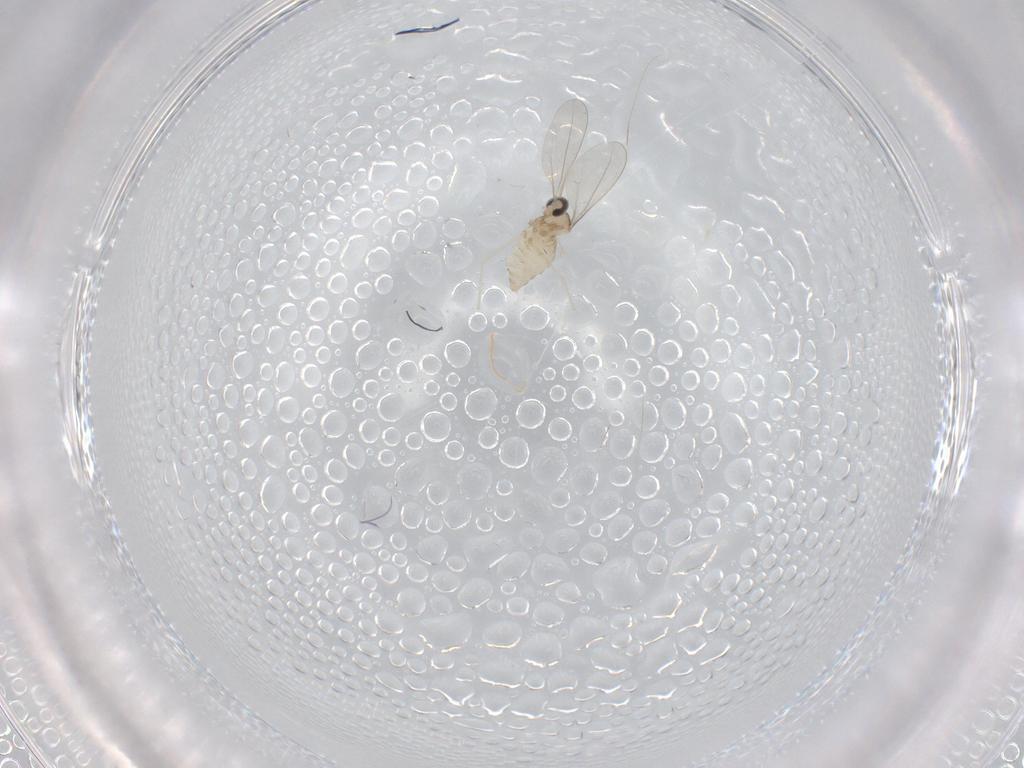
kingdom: Animalia
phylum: Arthropoda
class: Insecta
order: Diptera
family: Cecidomyiidae
